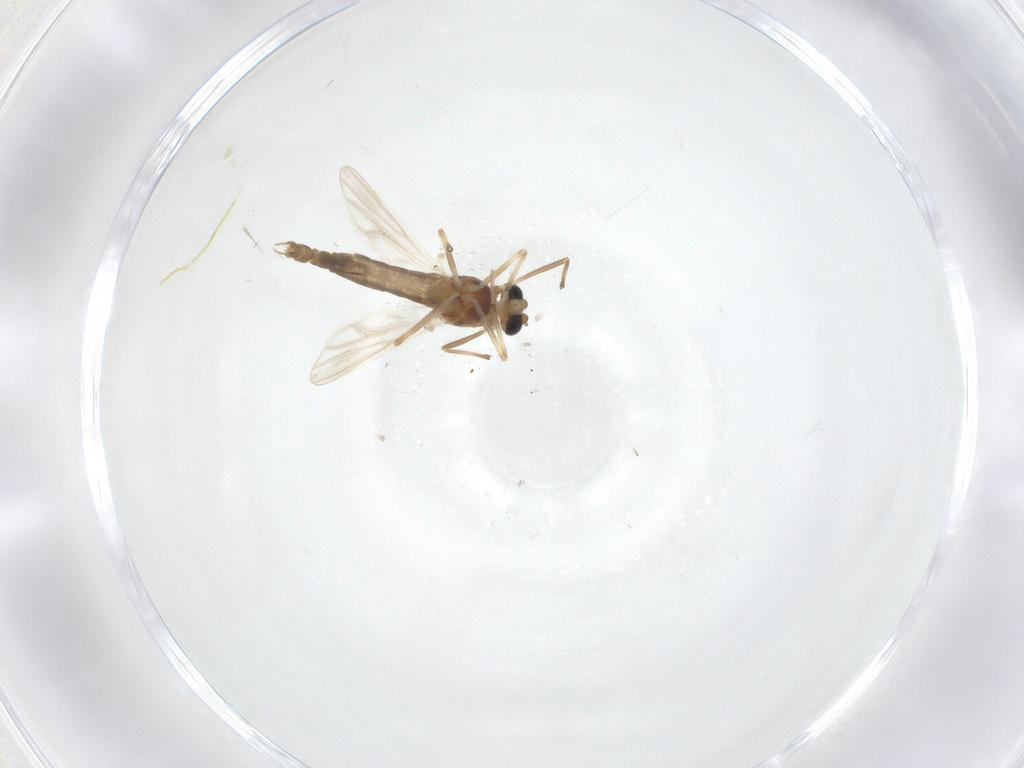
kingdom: Animalia
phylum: Arthropoda
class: Insecta
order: Diptera
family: Chironomidae
